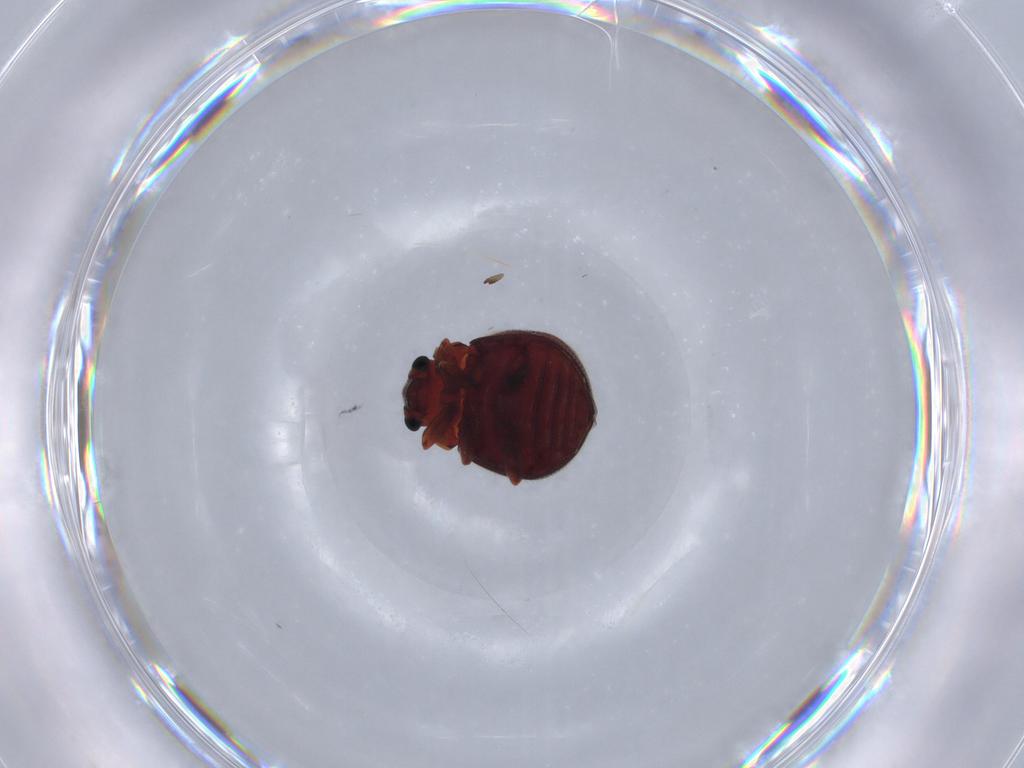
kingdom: Animalia
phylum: Arthropoda
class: Insecta
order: Coleoptera
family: Sphindidae
